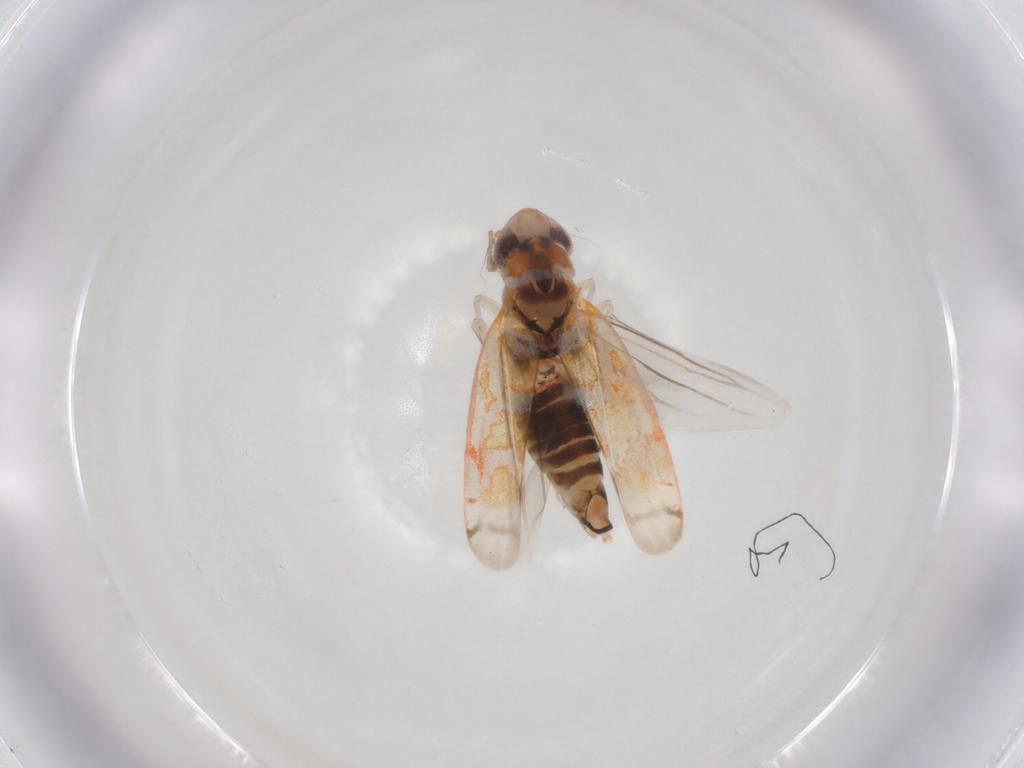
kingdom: Animalia
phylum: Arthropoda
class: Insecta
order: Hemiptera
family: Cicadellidae
